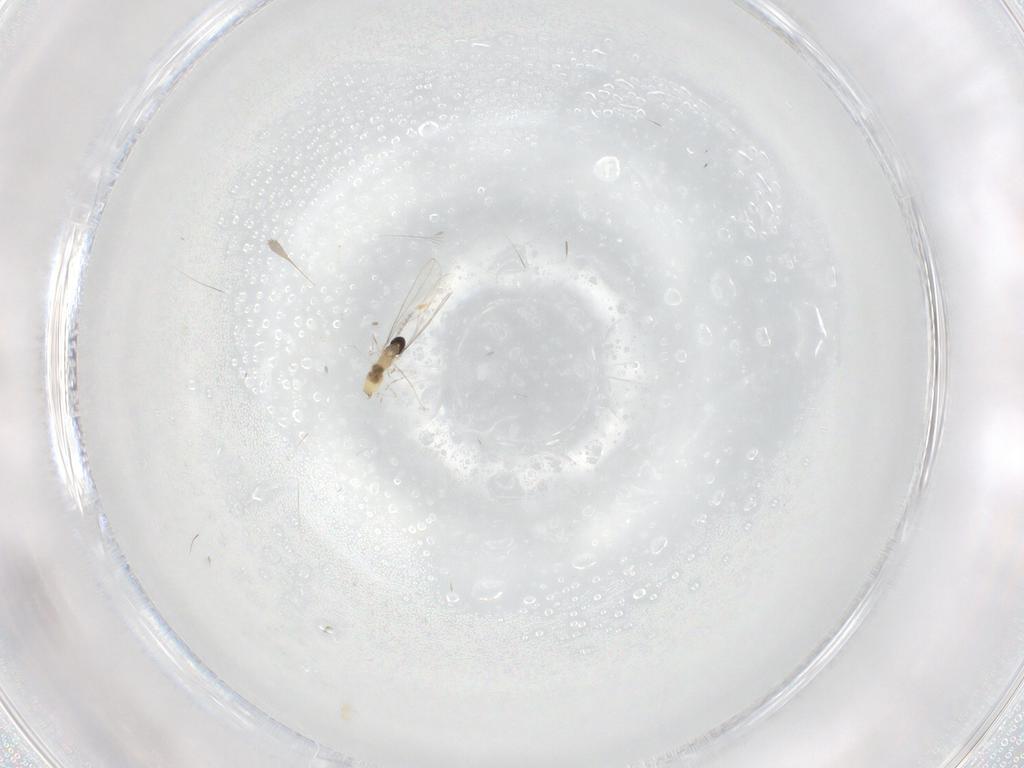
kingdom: Animalia
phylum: Arthropoda
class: Insecta
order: Diptera
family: Cecidomyiidae
